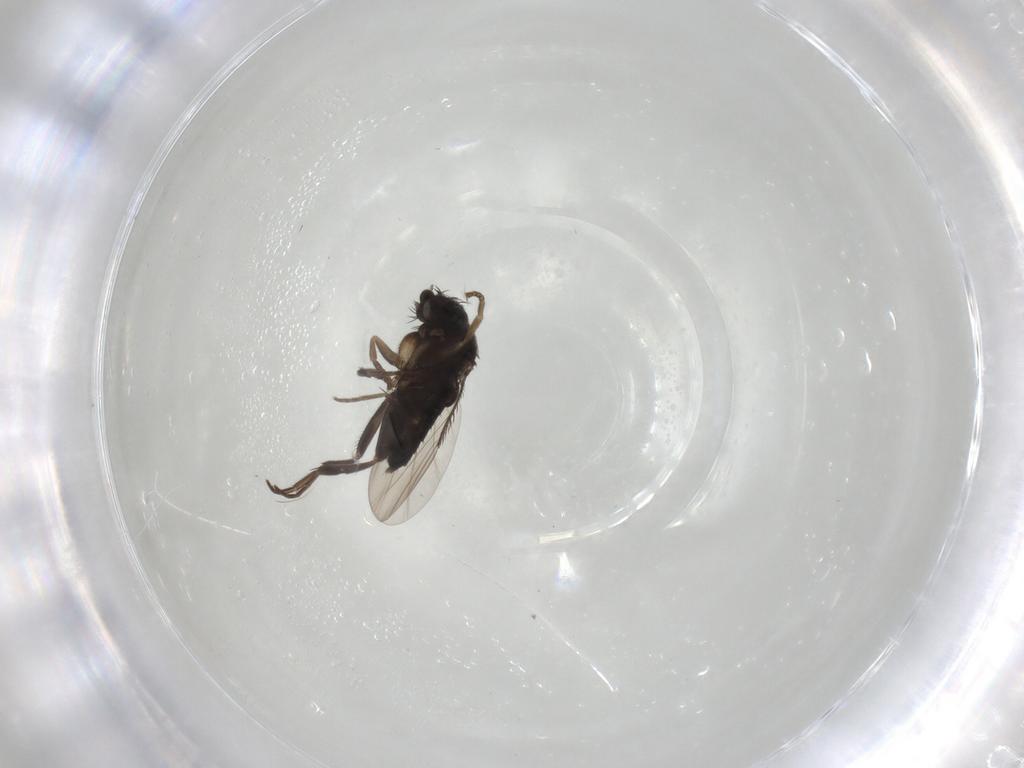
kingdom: Animalia
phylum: Arthropoda
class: Insecta
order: Diptera
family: Phoridae
